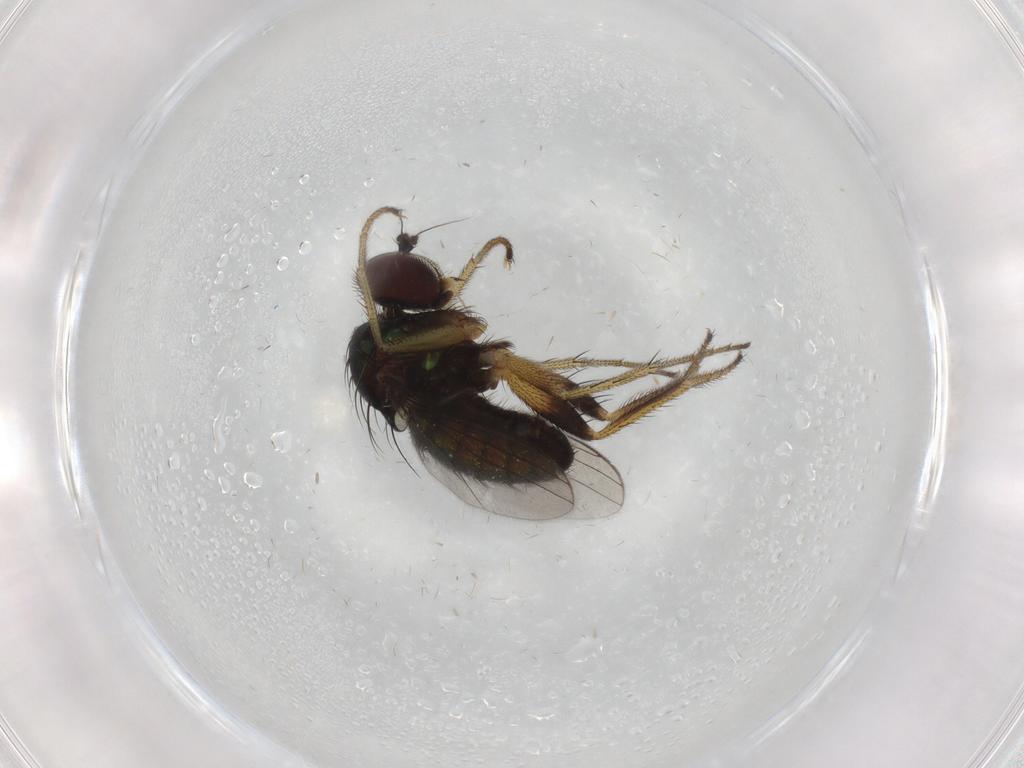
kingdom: Animalia
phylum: Arthropoda
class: Insecta
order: Diptera
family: Dolichopodidae
